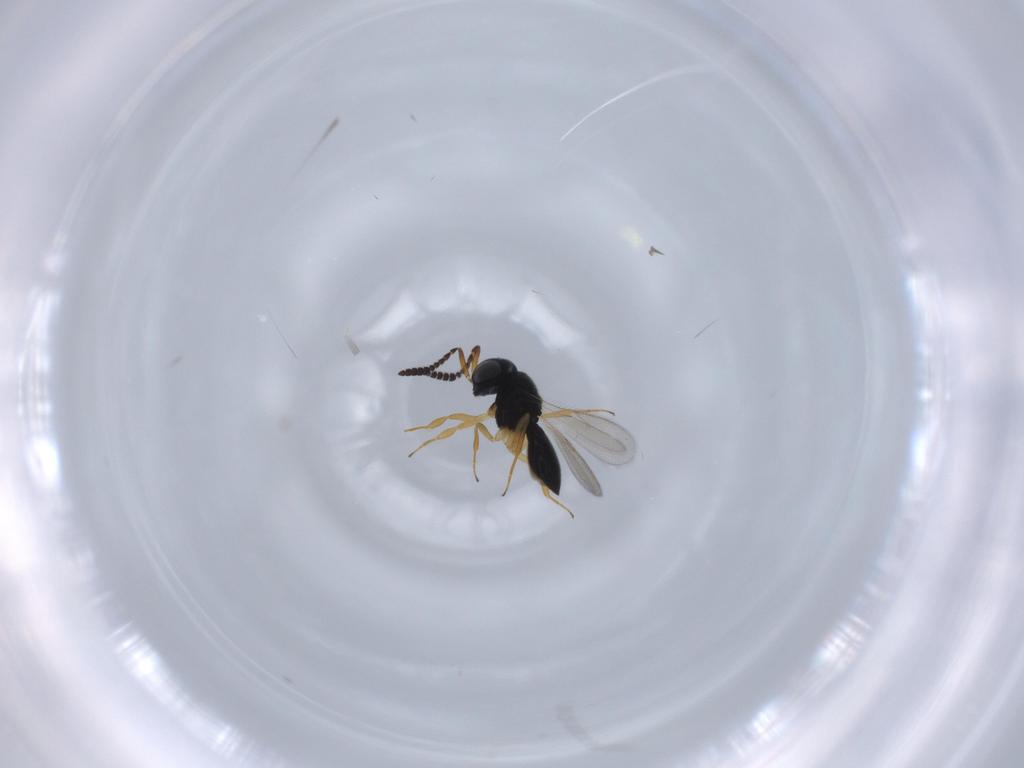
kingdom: Animalia
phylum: Arthropoda
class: Insecta
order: Hymenoptera
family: Scelionidae
